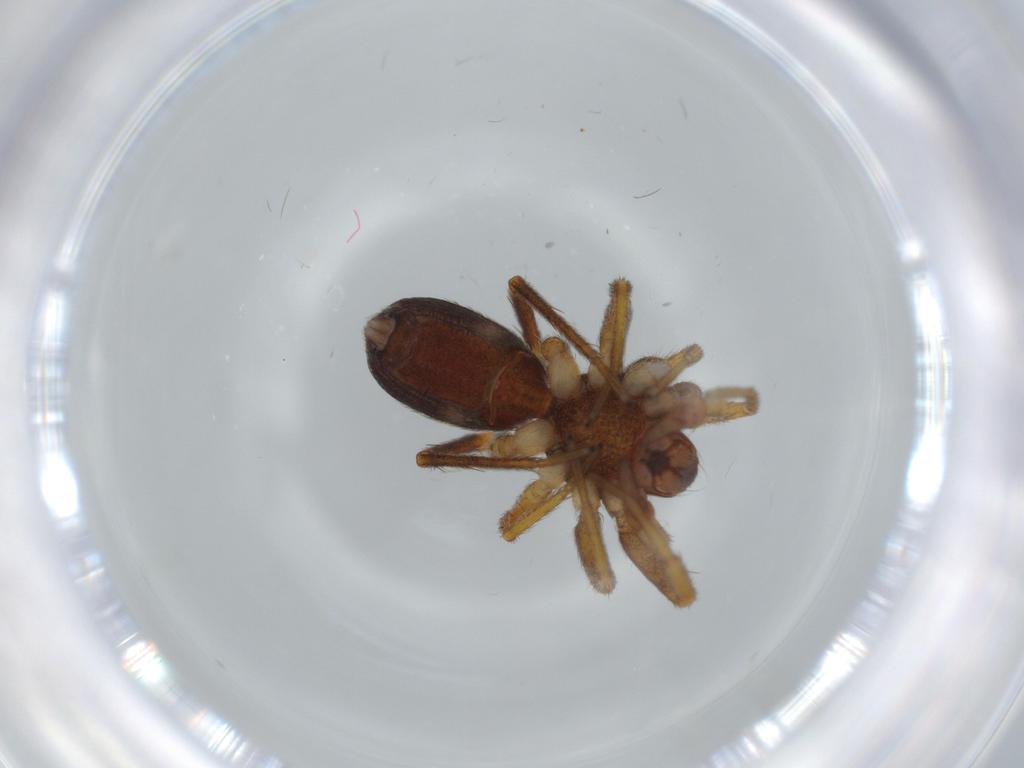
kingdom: Animalia
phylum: Arthropoda
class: Arachnida
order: Araneae
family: Corinnidae
